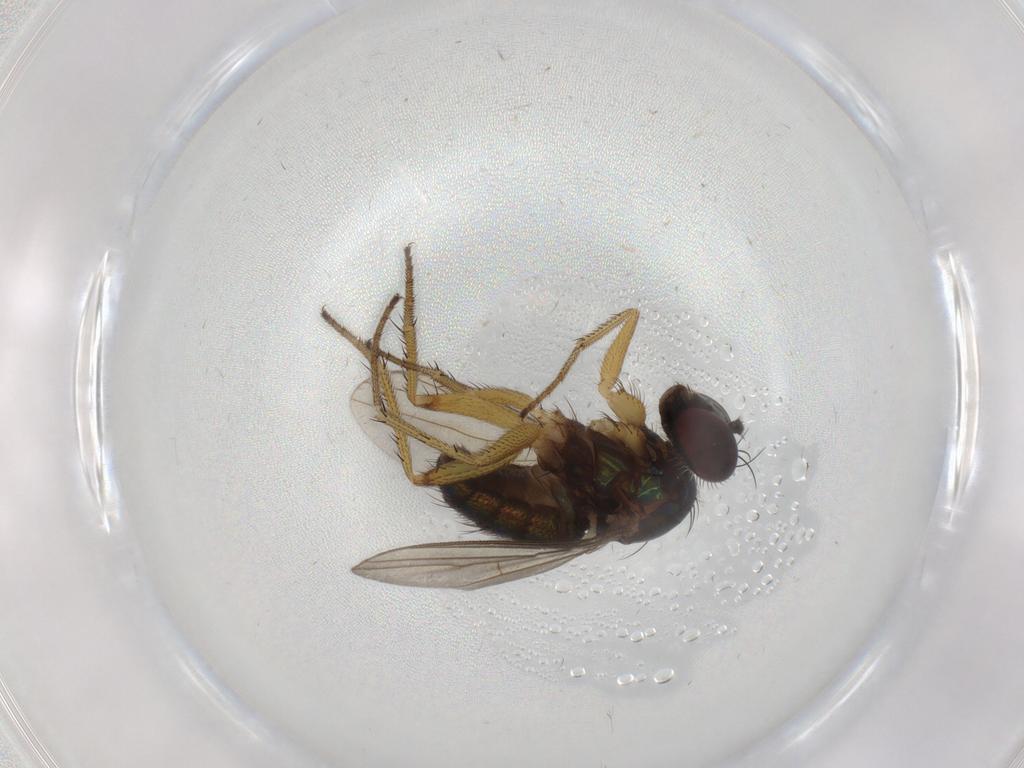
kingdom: Animalia
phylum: Arthropoda
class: Insecta
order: Diptera
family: Dolichopodidae
